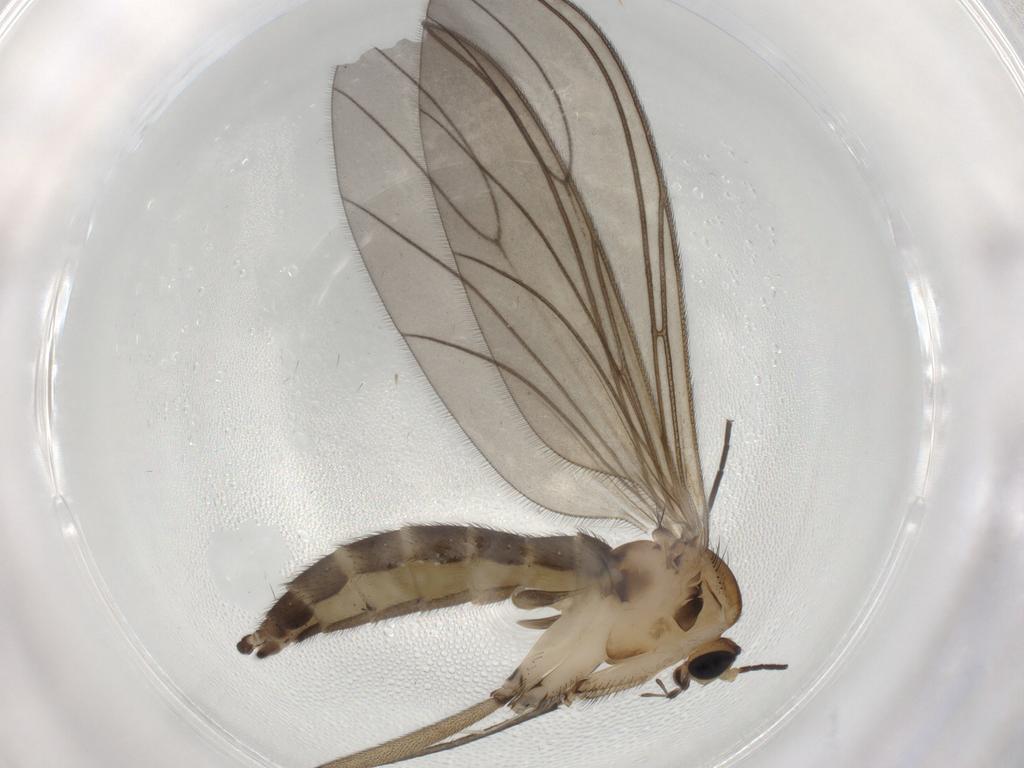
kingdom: Animalia
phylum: Arthropoda
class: Insecta
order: Diptera
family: Sciaridae
